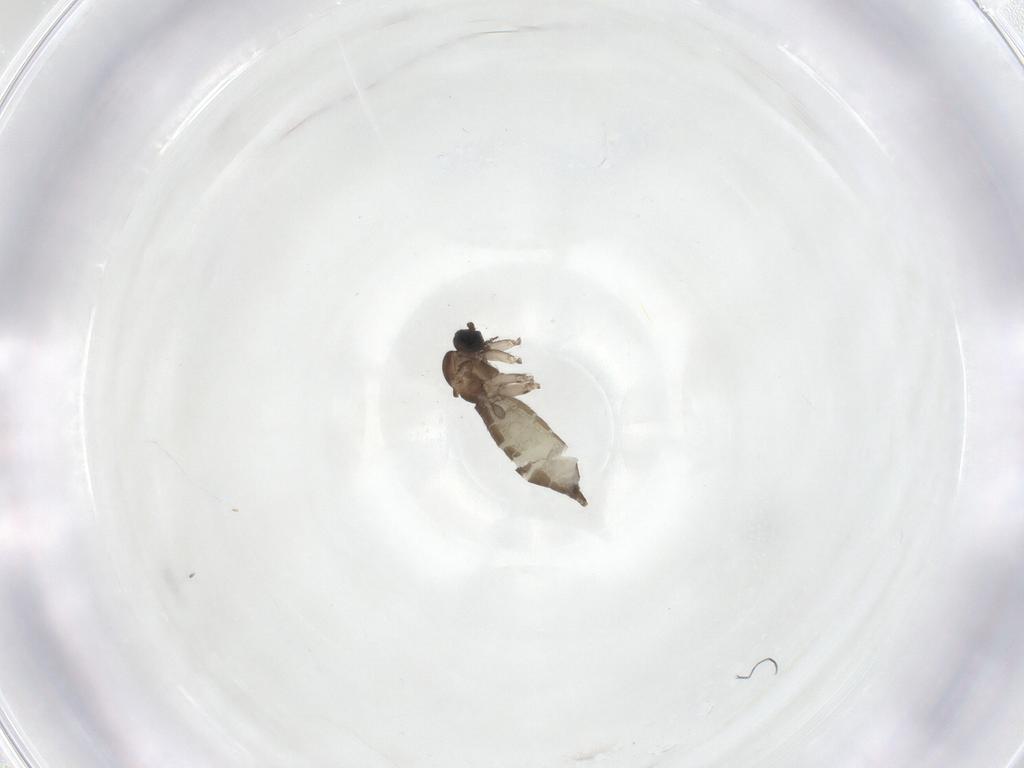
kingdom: Animalia
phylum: Arthropoda
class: Insecta
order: Diptera
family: Sciaridae
